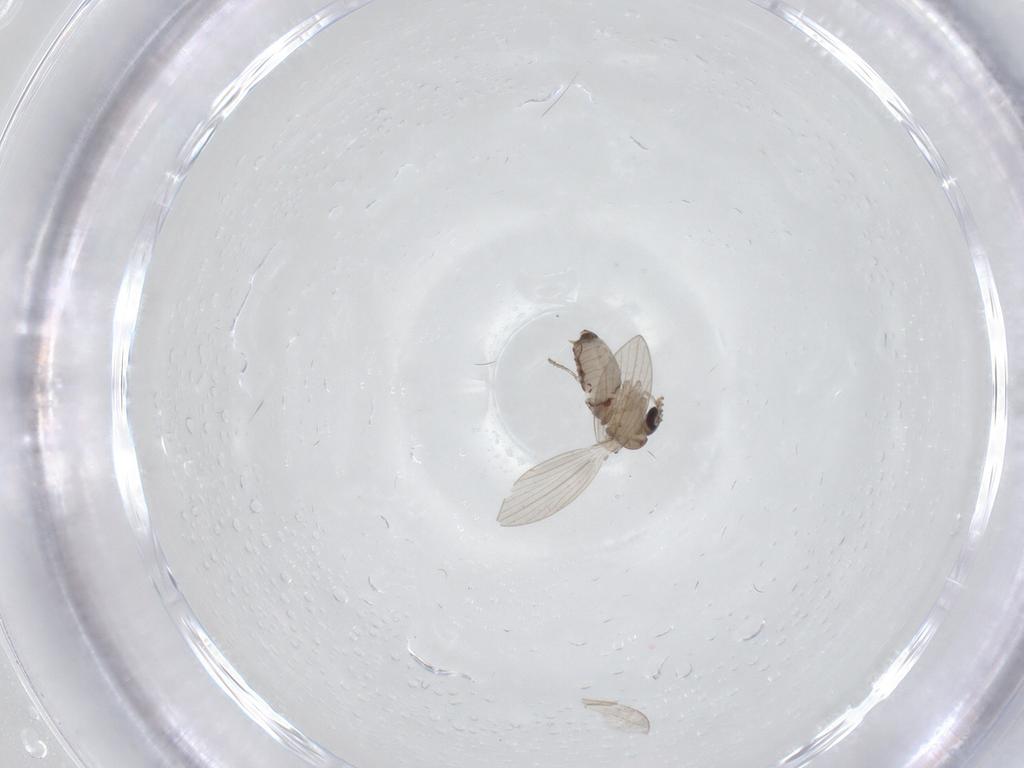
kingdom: Animalia
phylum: Arthropoda
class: Insecta
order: Diptera
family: Psychodidae
